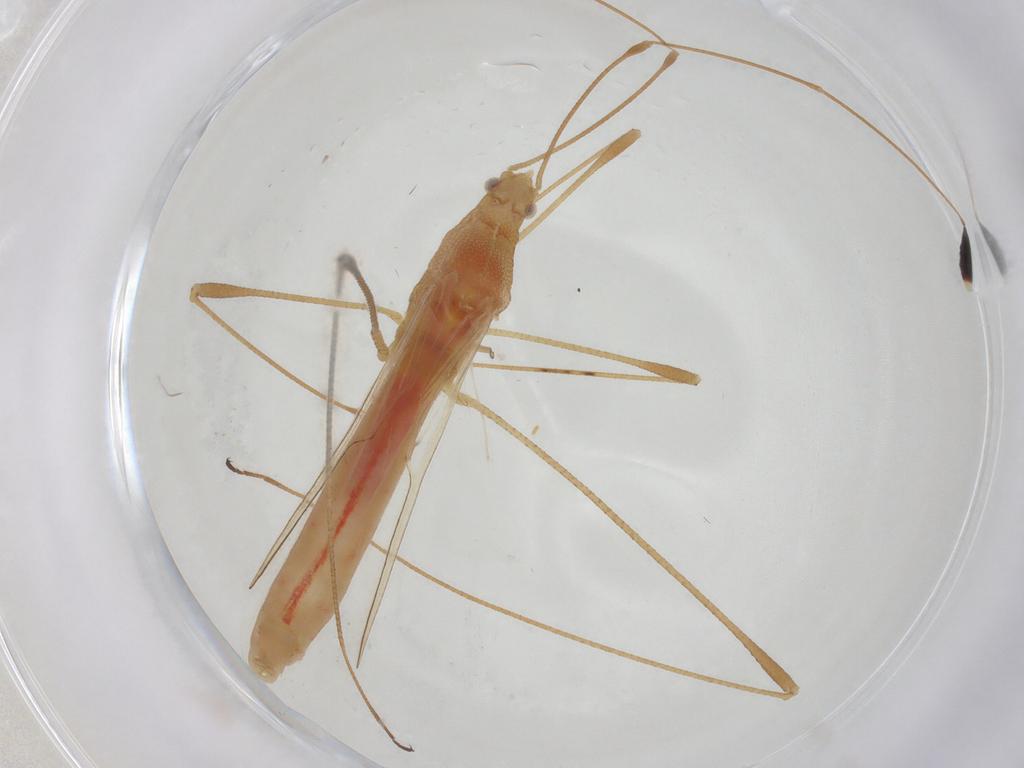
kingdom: Animalia
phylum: Arthropoda
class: Insecta
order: Hemiptera
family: Berytidae
